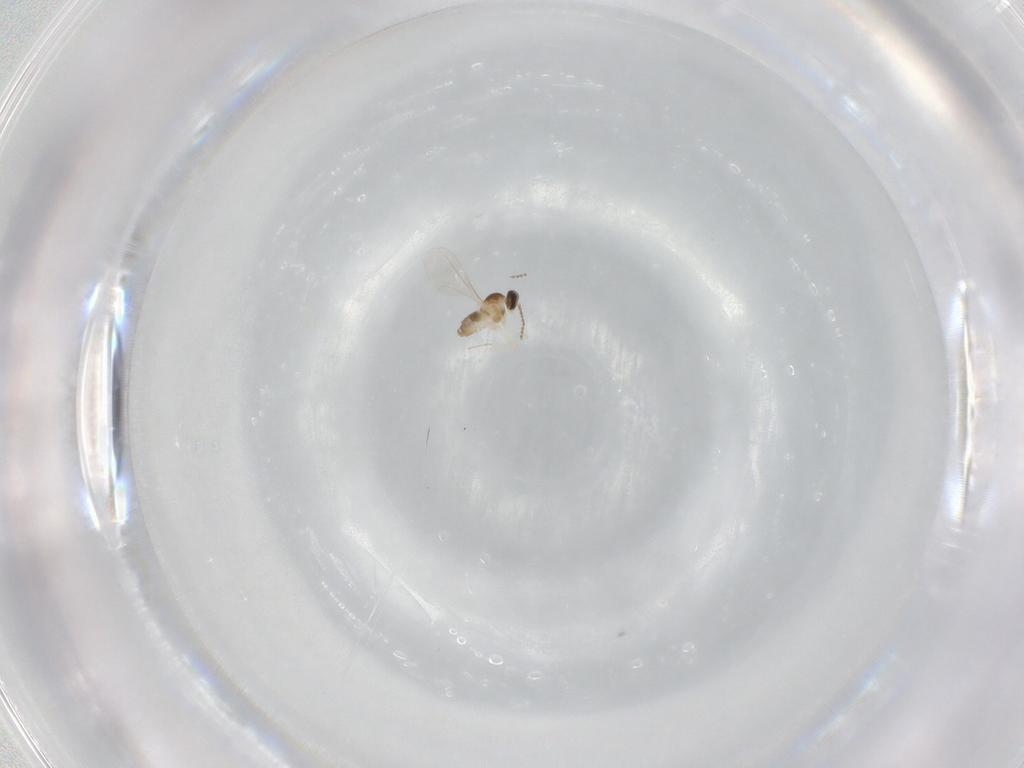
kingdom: Animalia
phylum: Arthropoda
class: Insecta
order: Diptera
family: Cecidomyiidae
